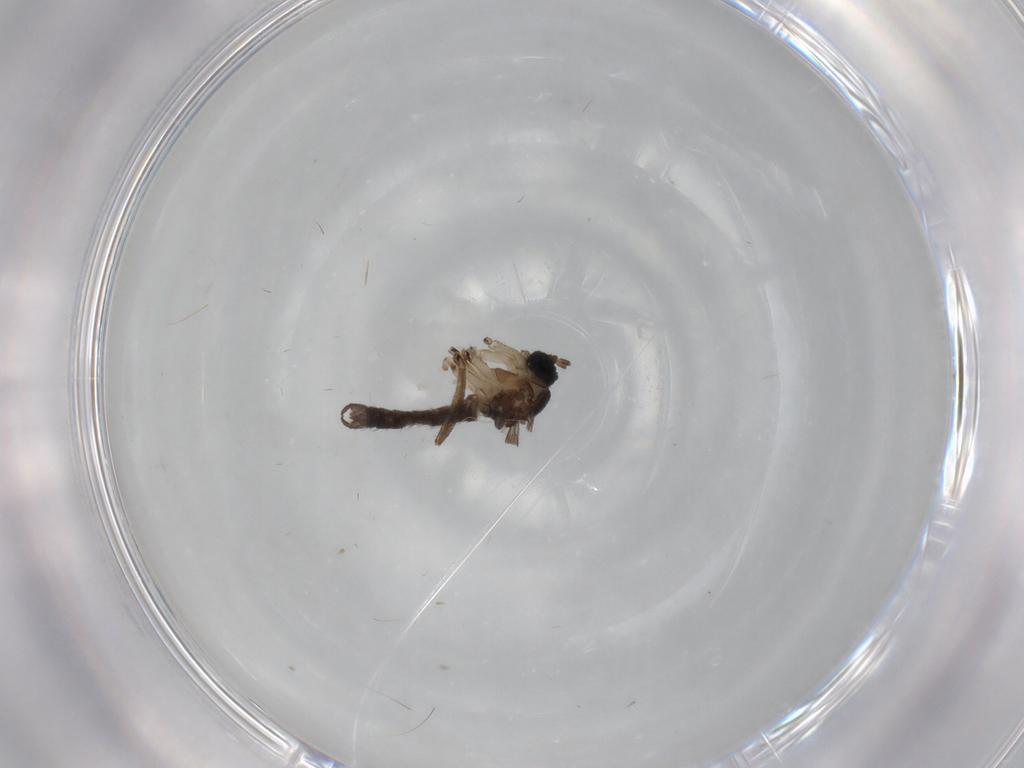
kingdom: Animalia
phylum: Arthropoda
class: Insecta
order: Diptera
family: Sciaridae
